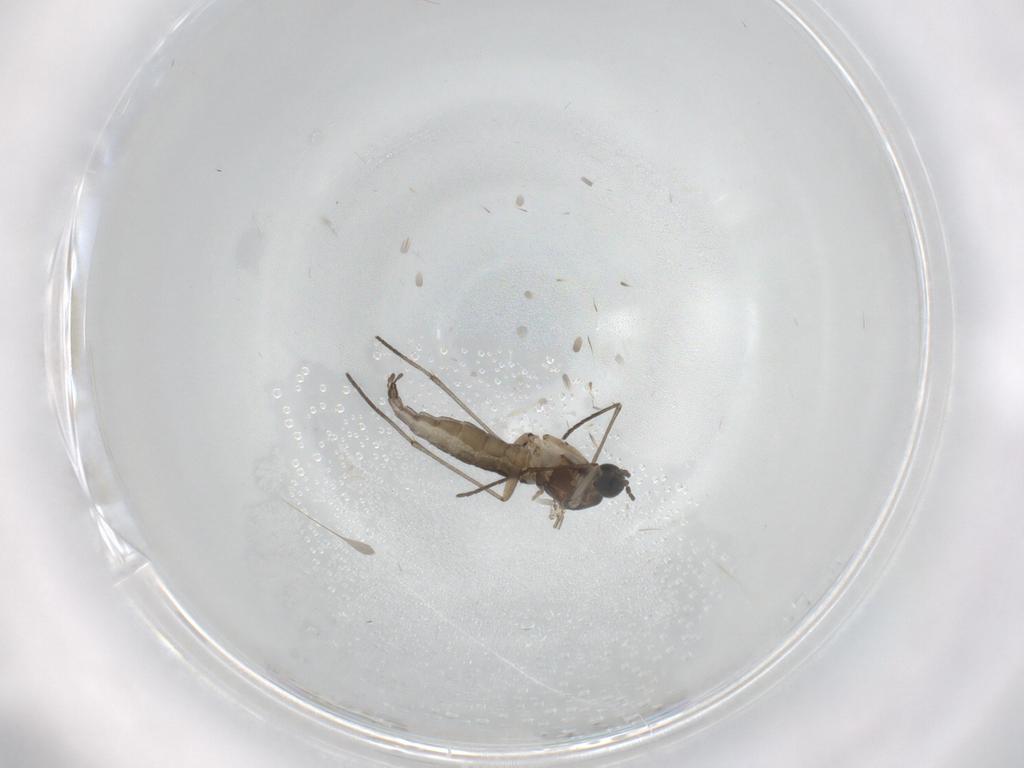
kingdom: Animalia
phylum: Arthropoda
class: Insecta
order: Diptera
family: Sciaridae
